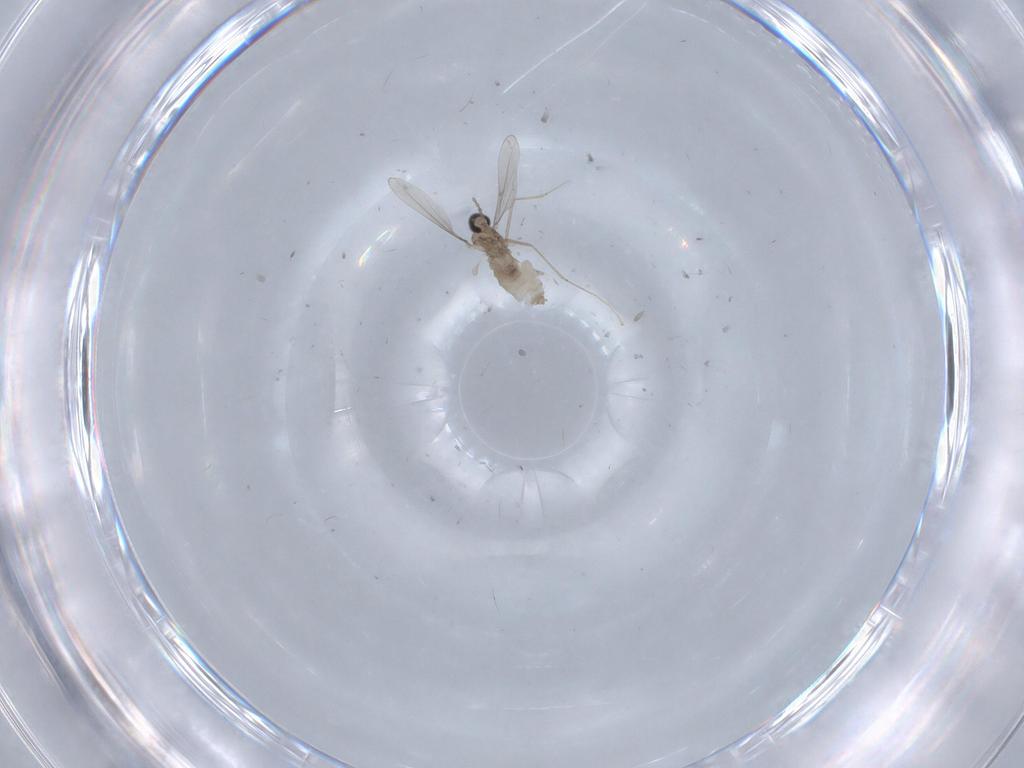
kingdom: Animalia
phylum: Arthropoda
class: Insecta
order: Diptera
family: Cecidomyiidae
